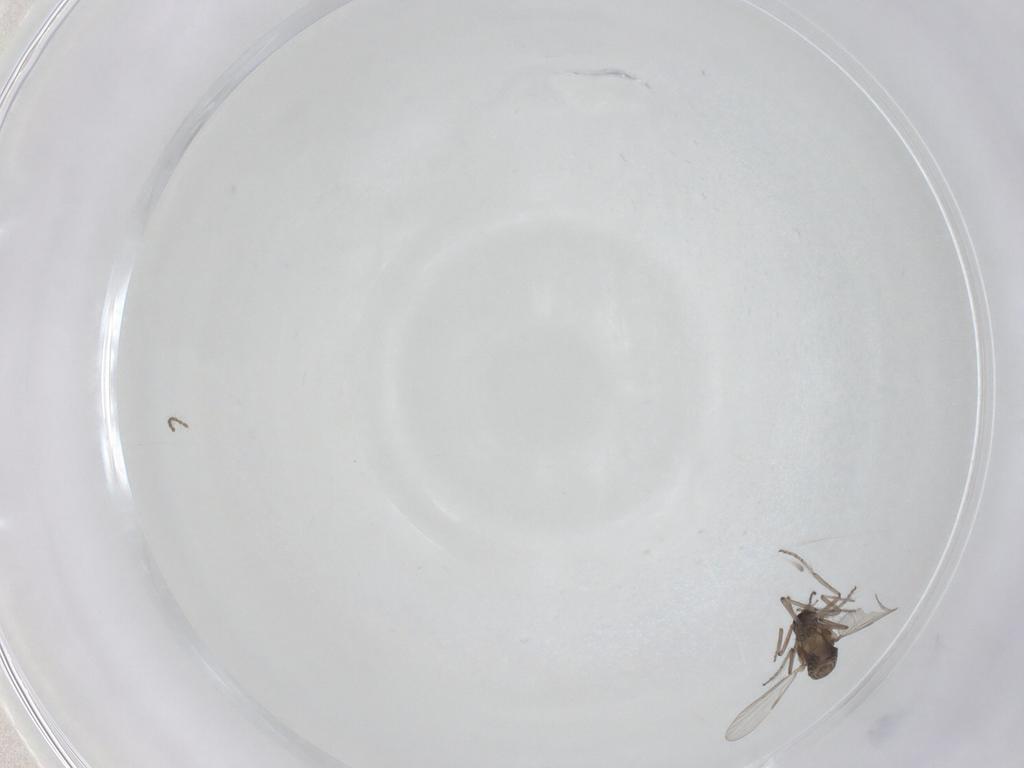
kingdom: Animalia
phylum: Arthropoda
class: Insecta
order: Diptera
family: Ceratopogonidae
